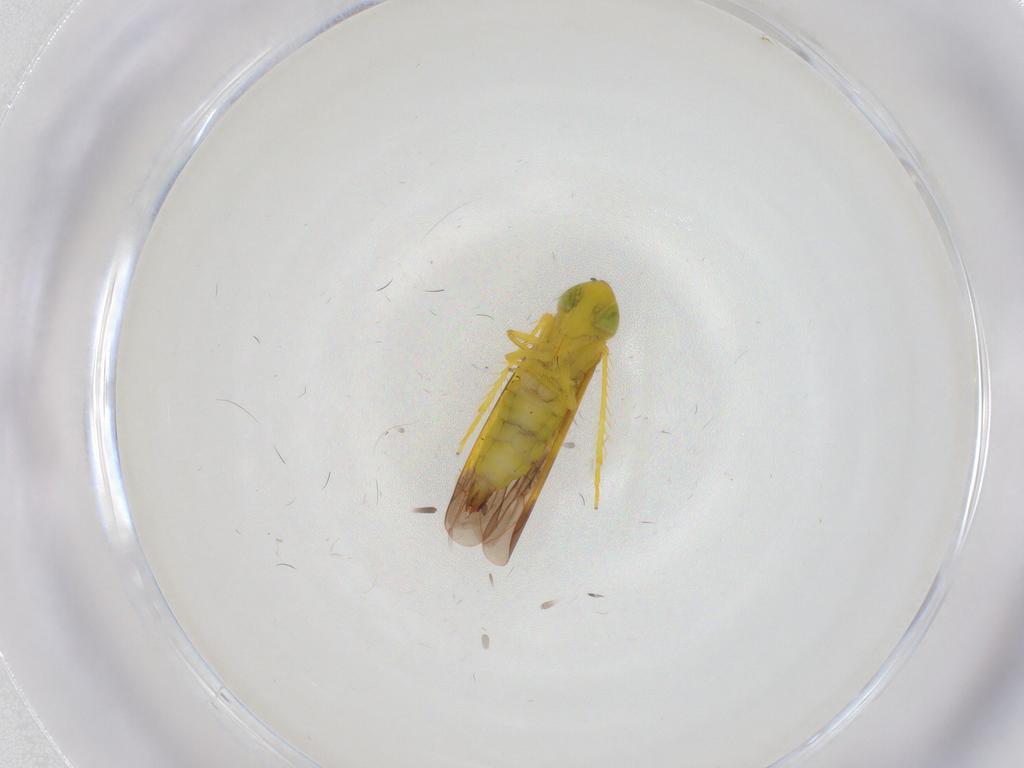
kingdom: Animalia
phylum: Arthropoda
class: Insecta
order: Hemiptera
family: Cicadellidae
